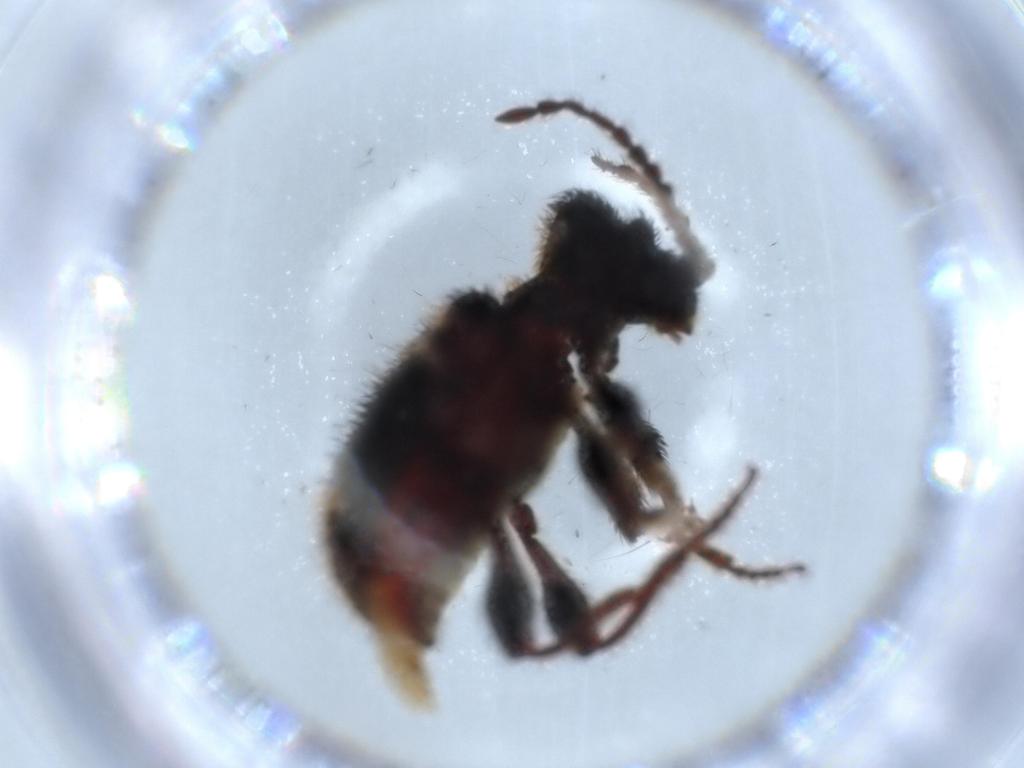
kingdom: Animalia
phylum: Arthropoda
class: Insecta
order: Coleoptera
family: Ptinidae
